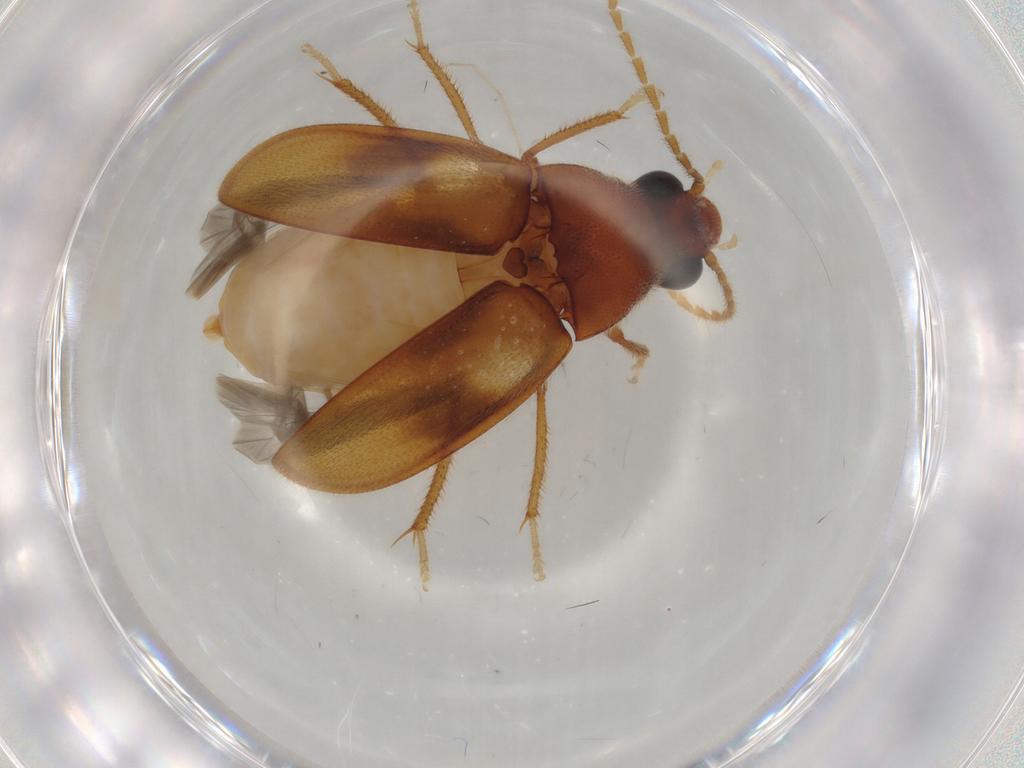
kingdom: Animalia
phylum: Arthropoda
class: Insecta
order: Coleoptera
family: Ptilodactylidae
